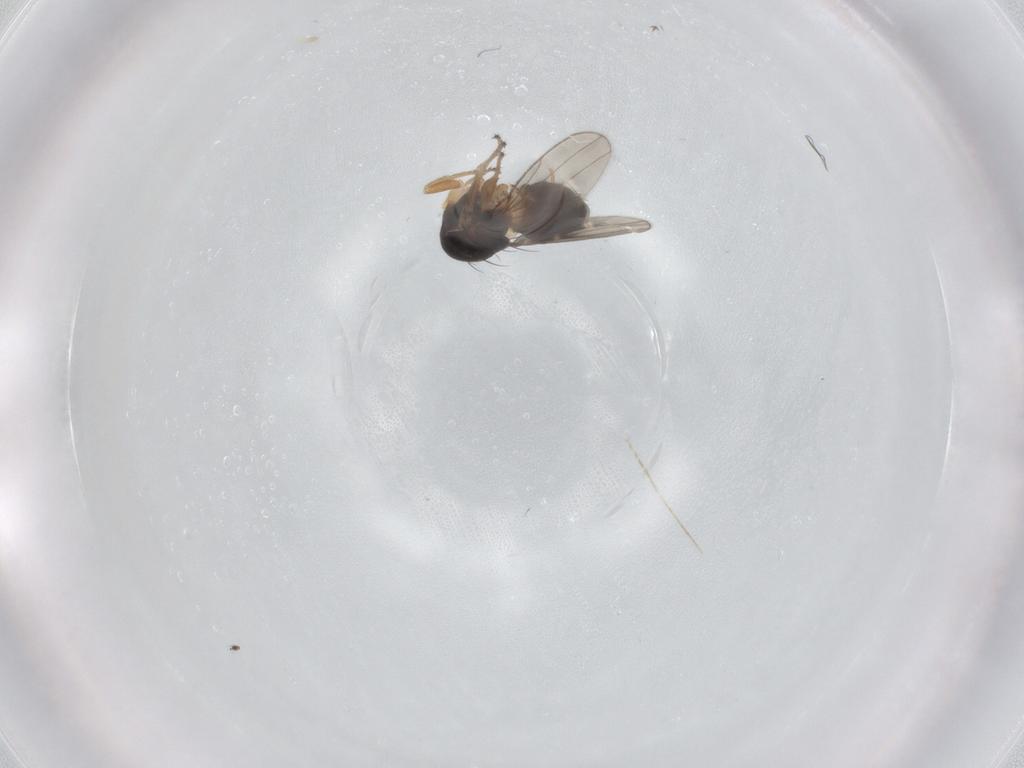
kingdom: Animalia
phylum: Arthropoda
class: Insecta
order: Diptera
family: Ephydridae
